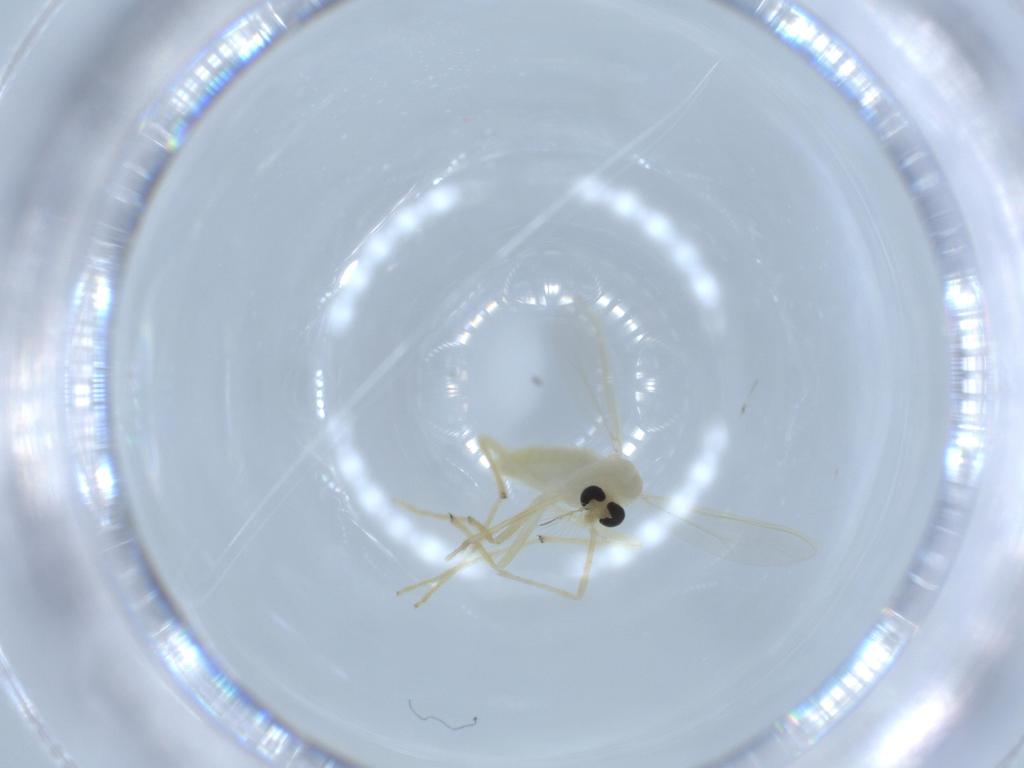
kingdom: Animalia
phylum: Arthropoda
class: Insecta
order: Diptera
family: Chironomidae
